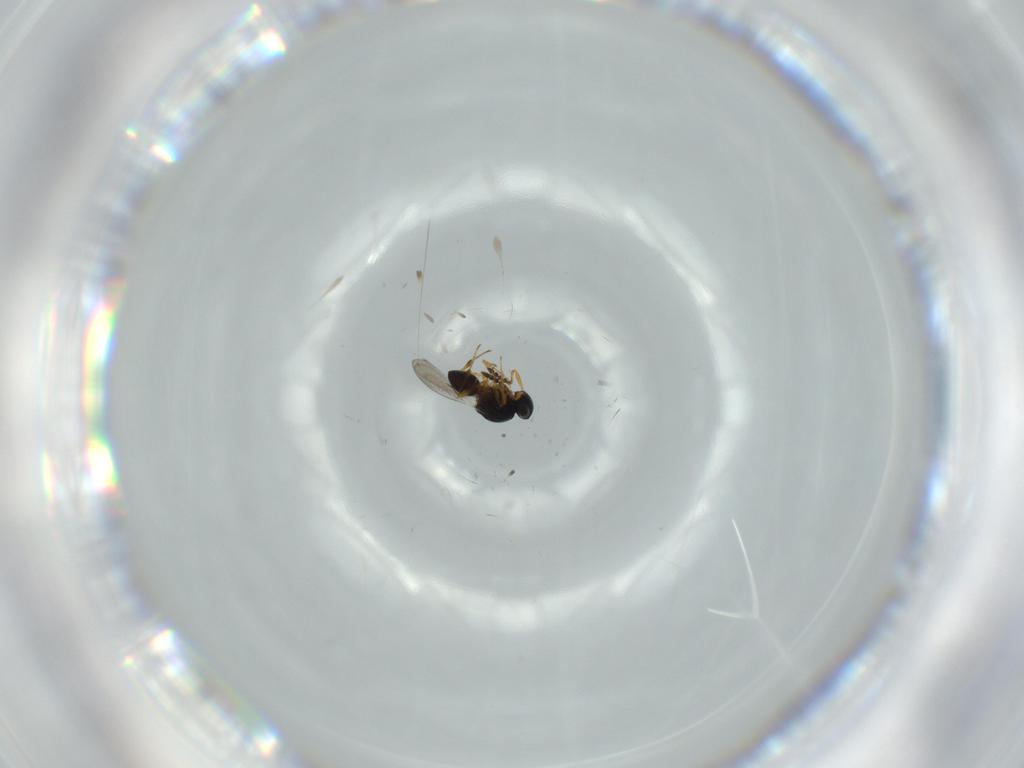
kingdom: Animalia
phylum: Arthropoda
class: Insecta
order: Hymenoptera
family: Platygastridae
